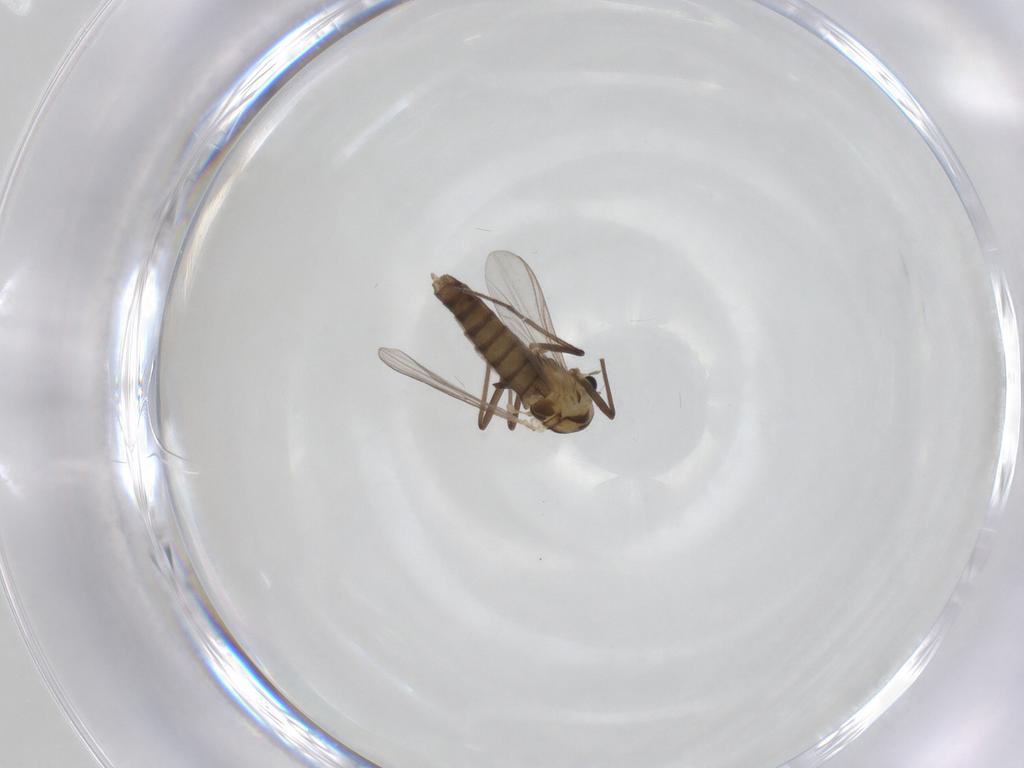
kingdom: Animalia
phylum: Arthropoda
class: Insecta
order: Diptera
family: Chironomidae
